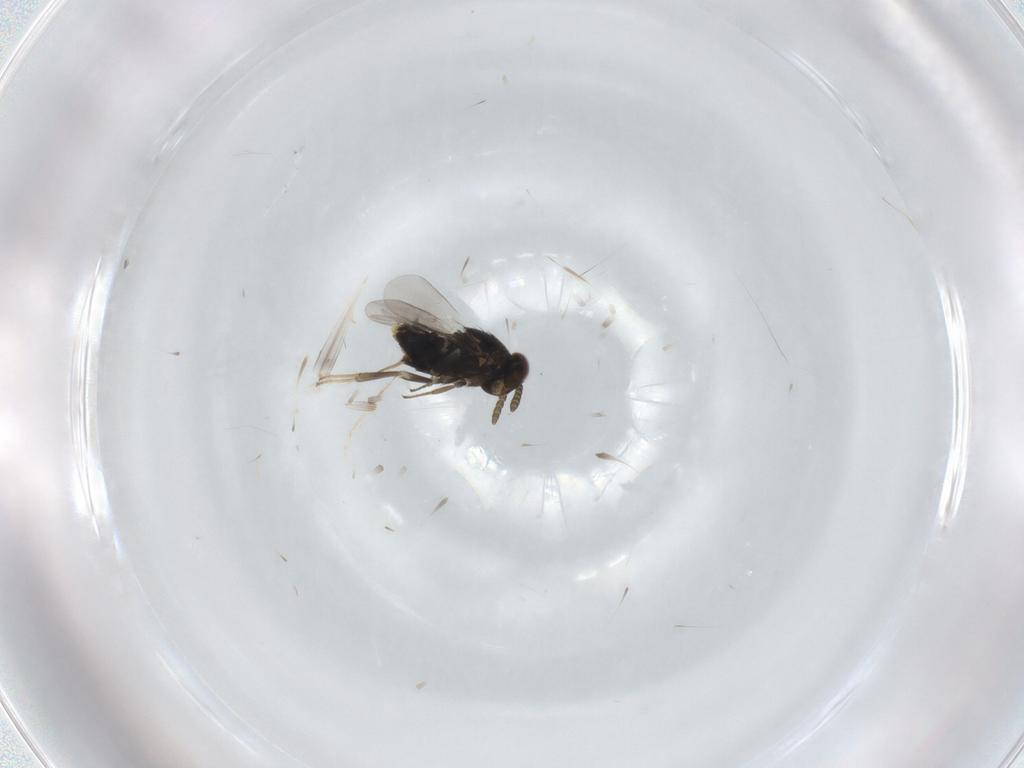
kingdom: Animalia
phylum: Arthropoda
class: Insecta
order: Hymenoptera
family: Aphelinidae
